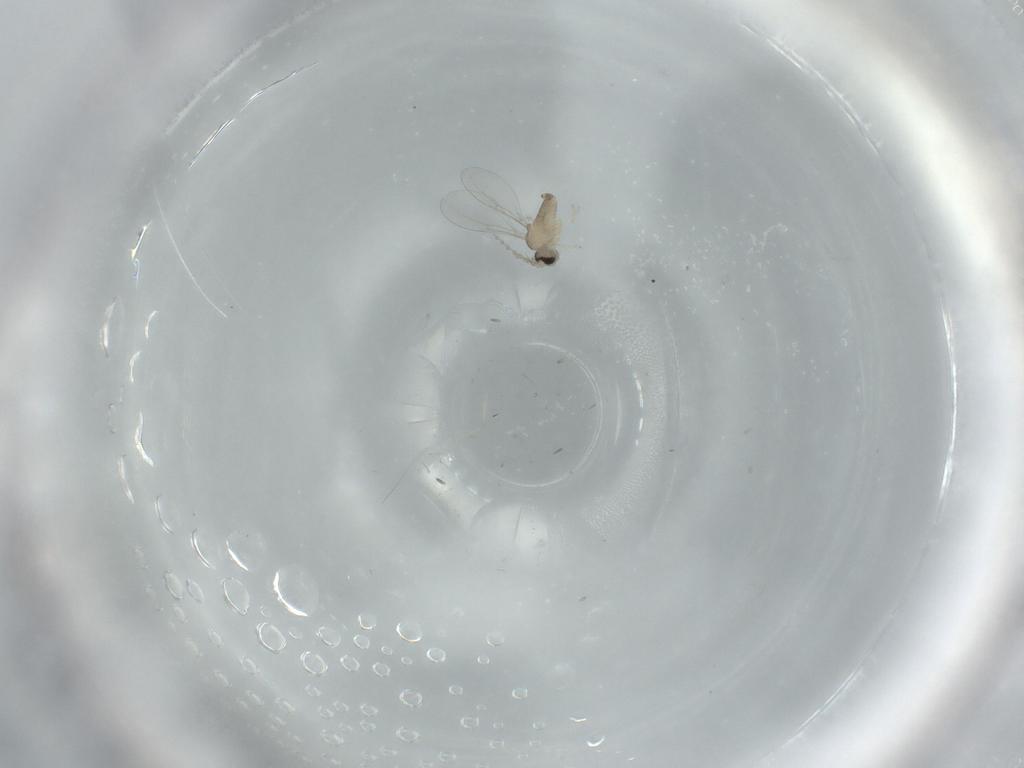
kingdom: Animalia
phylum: Arthropoda
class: Insecta
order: Diptera
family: Cecidomyiidae
